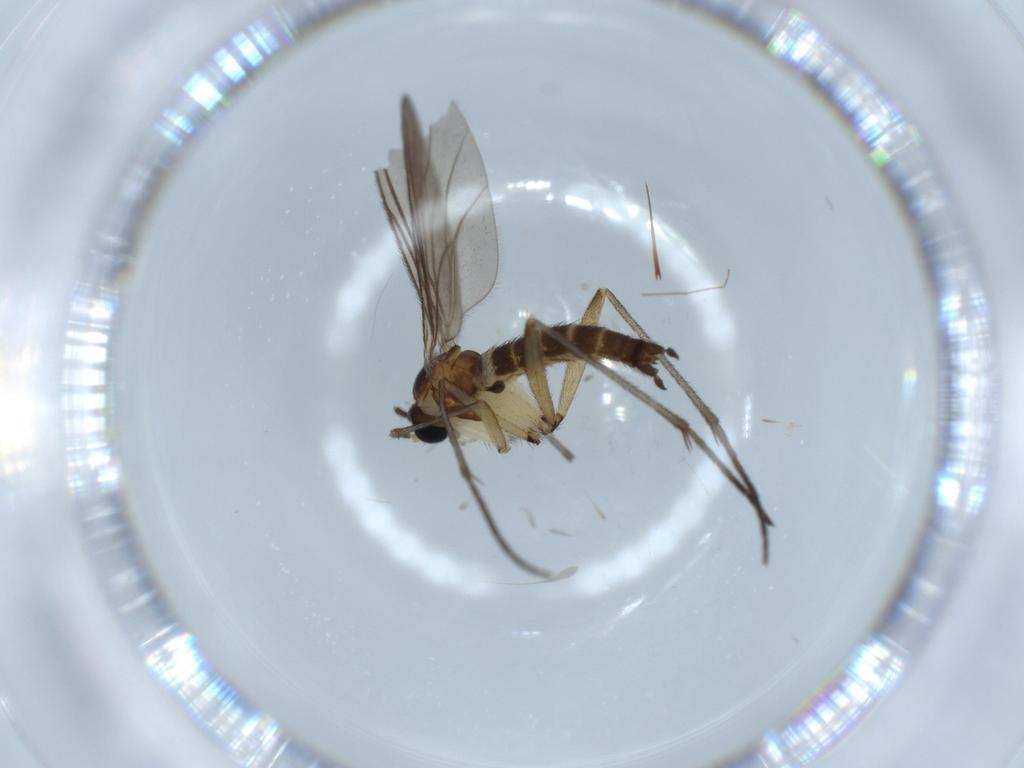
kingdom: Animalia
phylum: Arthropoda
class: Insecta
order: Diptera
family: Sciaridae
